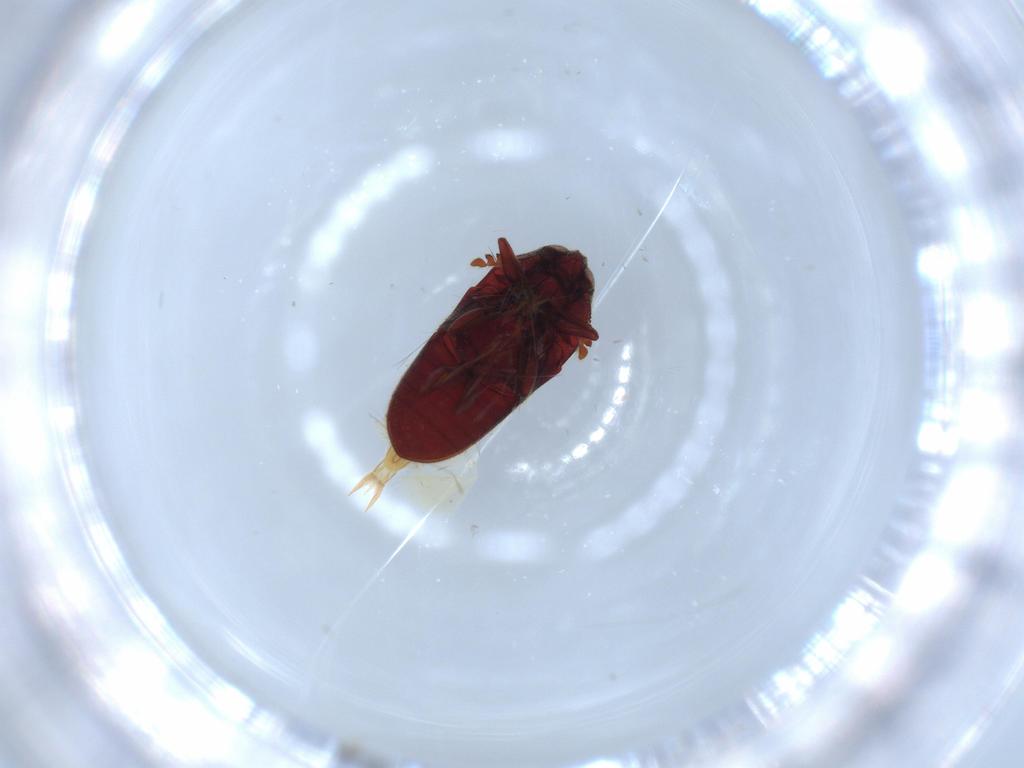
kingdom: Animalia
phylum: Arthropoda
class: Insecta
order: Coleoptera
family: Throscidae
